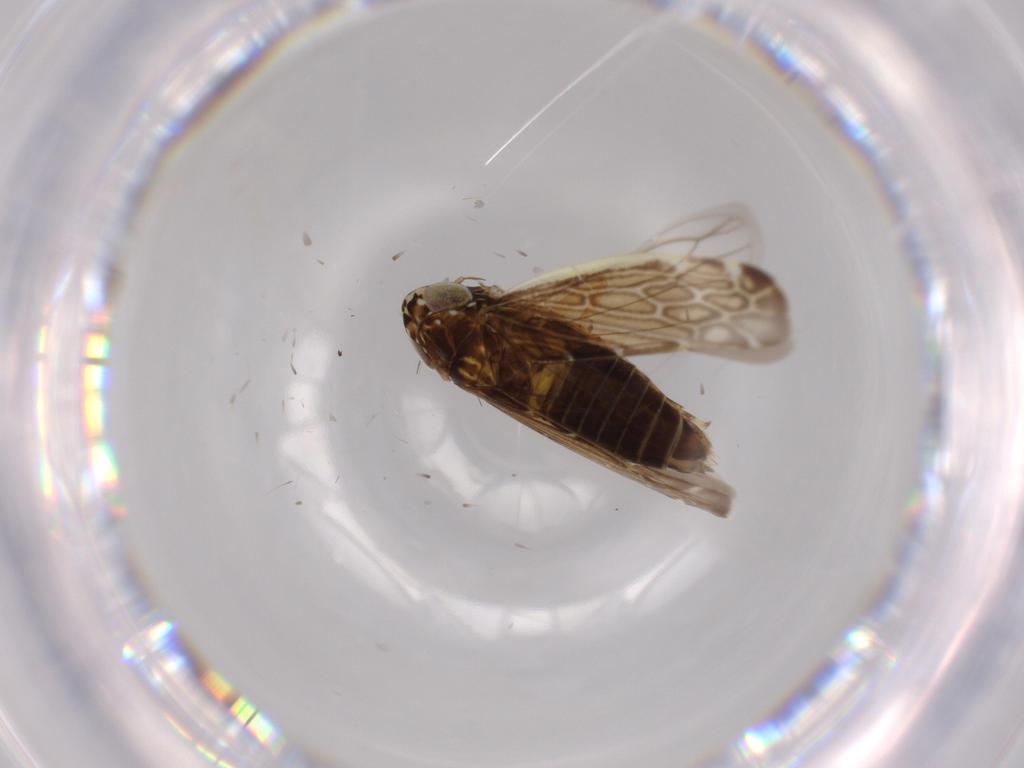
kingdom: Animalia
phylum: Arthropoda
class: Insecta
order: Hemiptera
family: Cicadellidae
